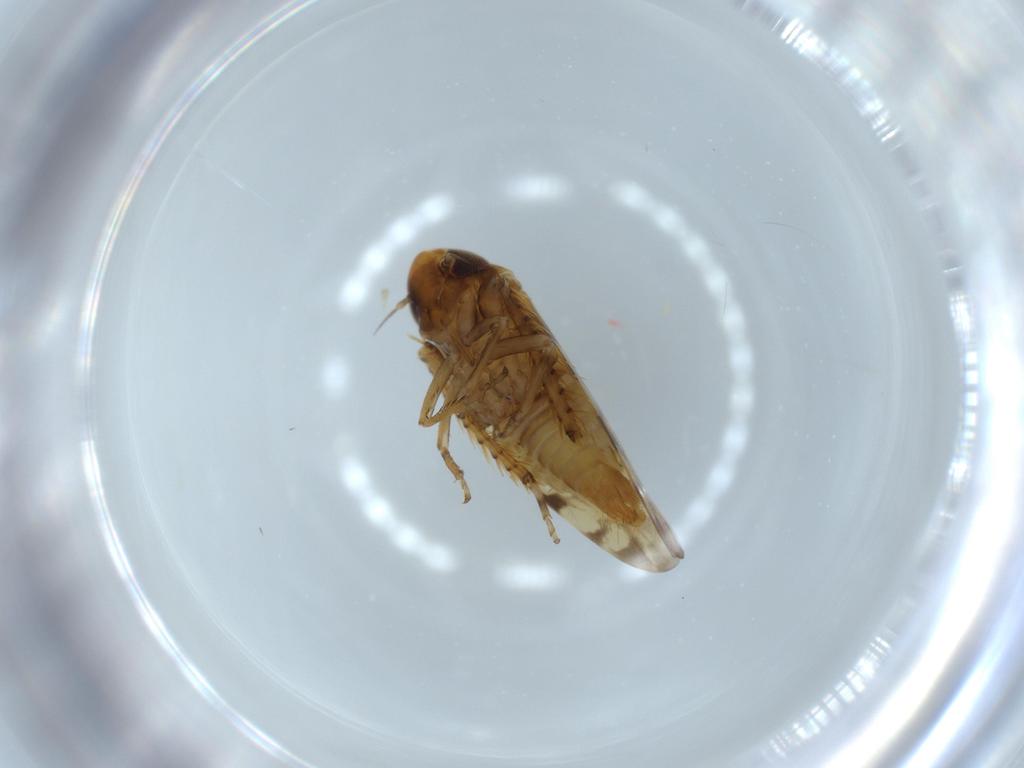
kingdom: Animalia
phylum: Arthropoda
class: Insecta
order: Hemiptera
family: Cicadellidae
